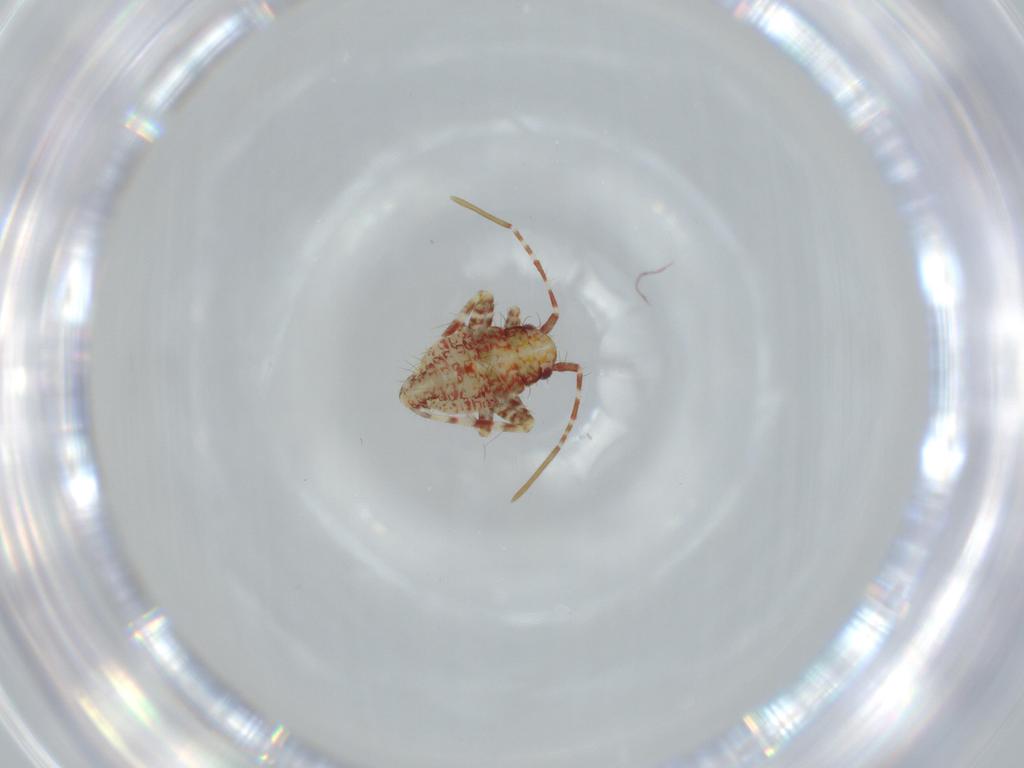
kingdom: Animalia
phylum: Arthropoda
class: Insecta
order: Hemiptera
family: Miridae
